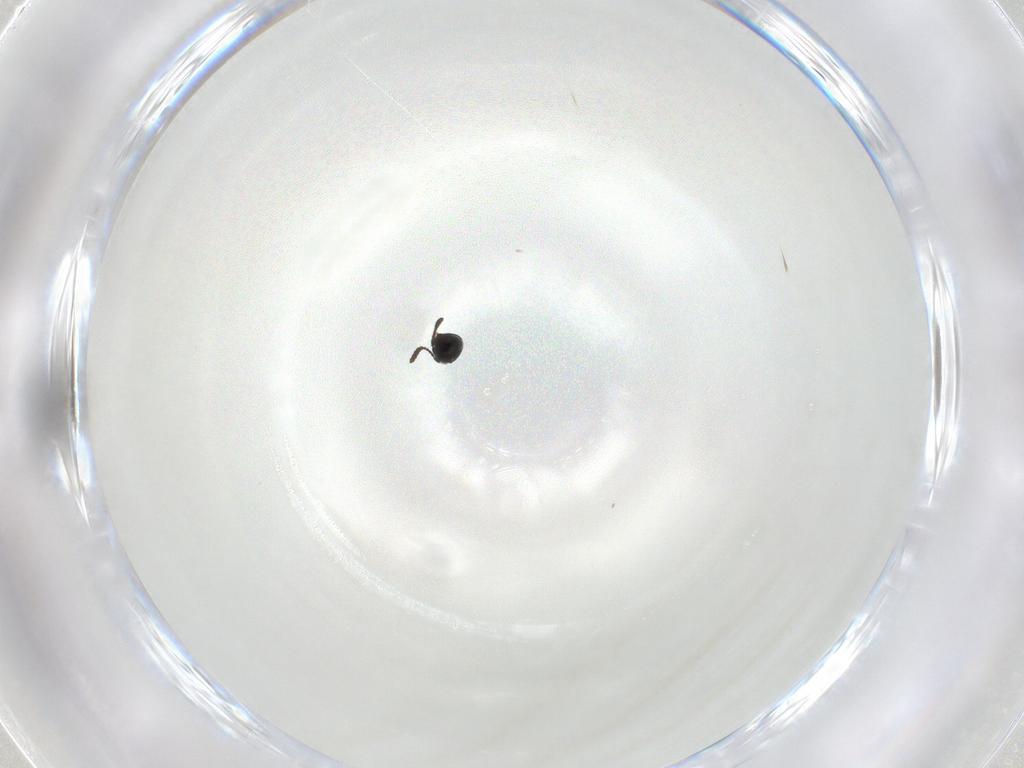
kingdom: Animalia
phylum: Arthropoda
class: Insecta
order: Hymenoptera
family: Scelionidae
